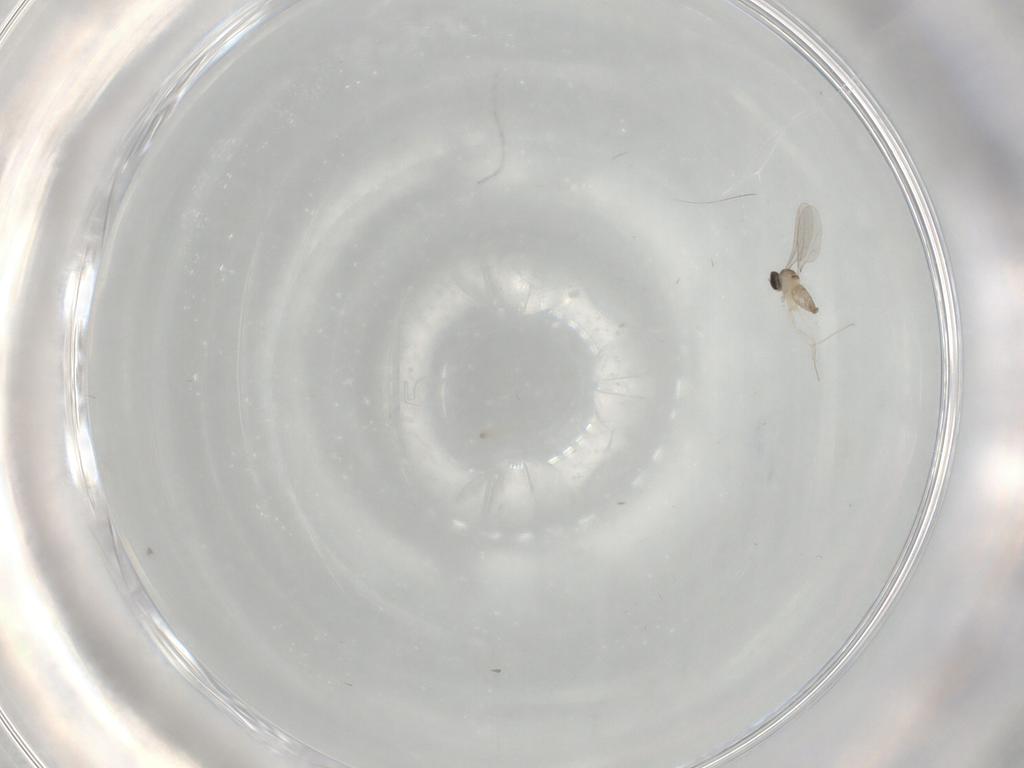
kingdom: Animalia
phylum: Arthropoda
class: Insecta
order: Diptera
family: Cecidomyiidae
